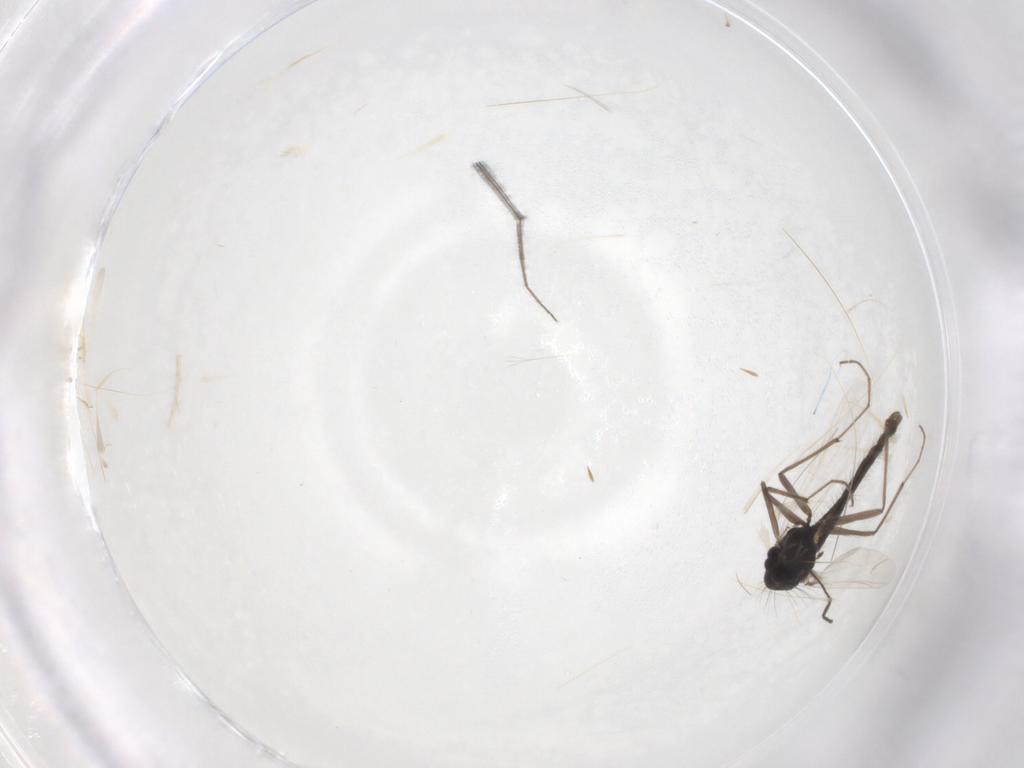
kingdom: Animalia
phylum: Arthropoda
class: Insecta
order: Diptera
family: Chironomidae
